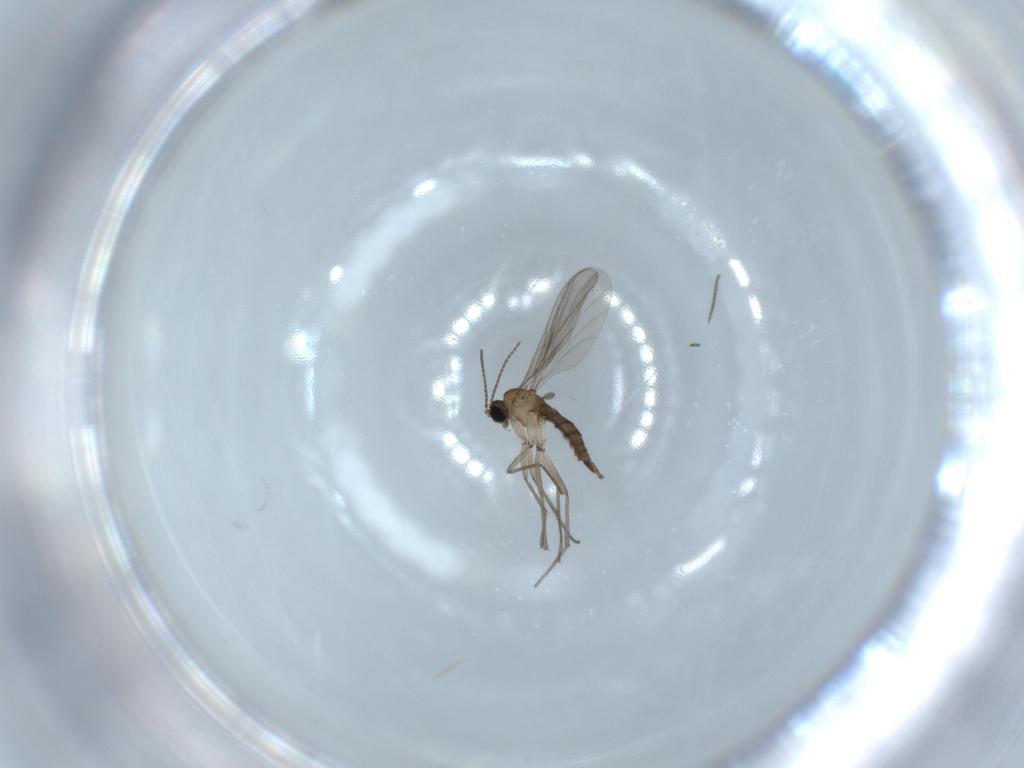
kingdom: Animalia
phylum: Arthropoda
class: Insecta
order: Diptera
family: Sciaridae
